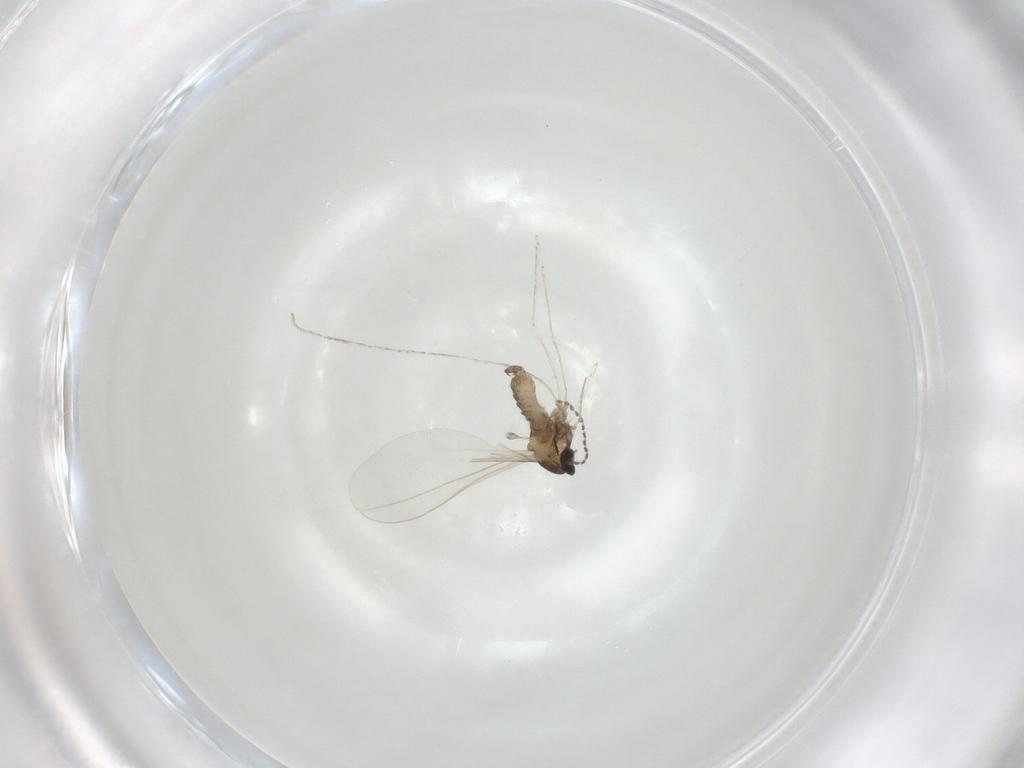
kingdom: Animalia
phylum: Arthropoda
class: Insecta
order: Diptera
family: Cecidomyiidae
